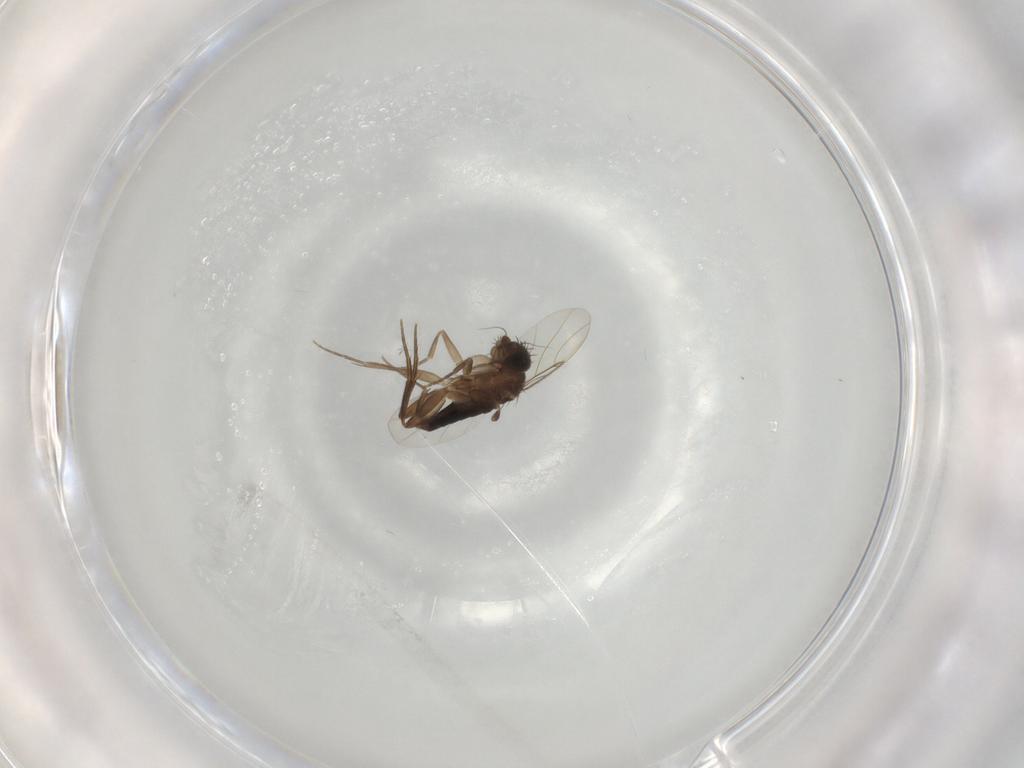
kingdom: Animalia
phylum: Arthropoda
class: Insecta
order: Diptera
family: Phoridae
